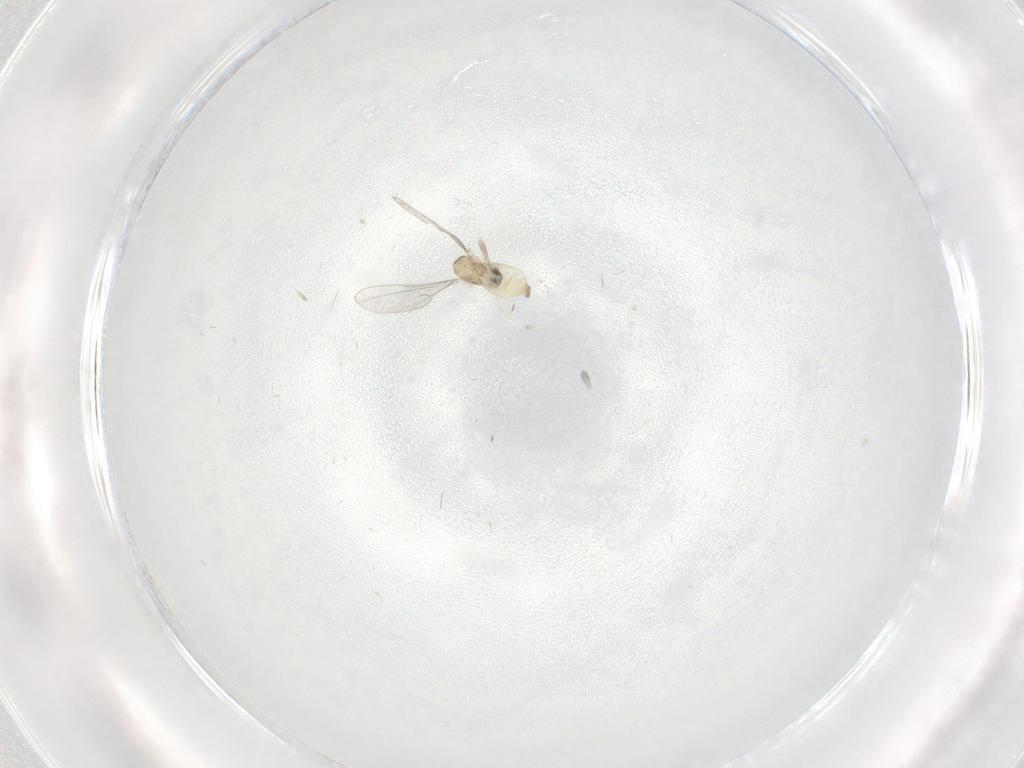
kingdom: Animalia
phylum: Arthropoda
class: Insecta
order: Diptera
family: Cecidomyiidae
